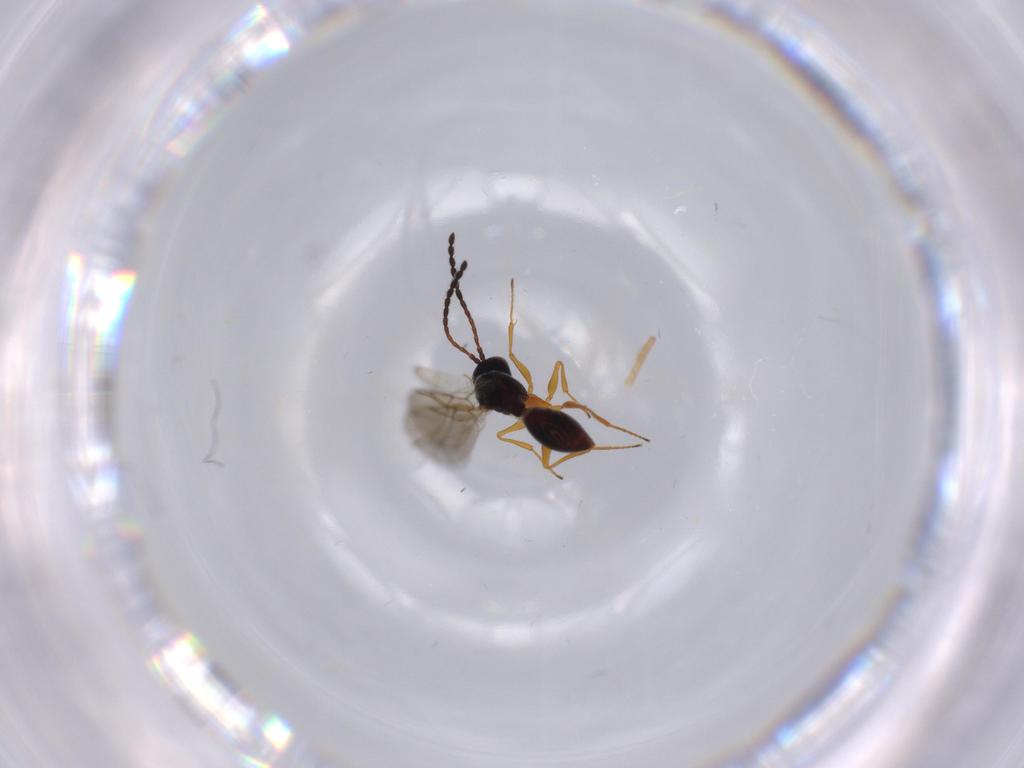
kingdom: Animalia
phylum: Arthropoda
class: Insecta
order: Hymenoptera
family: Figitidae
